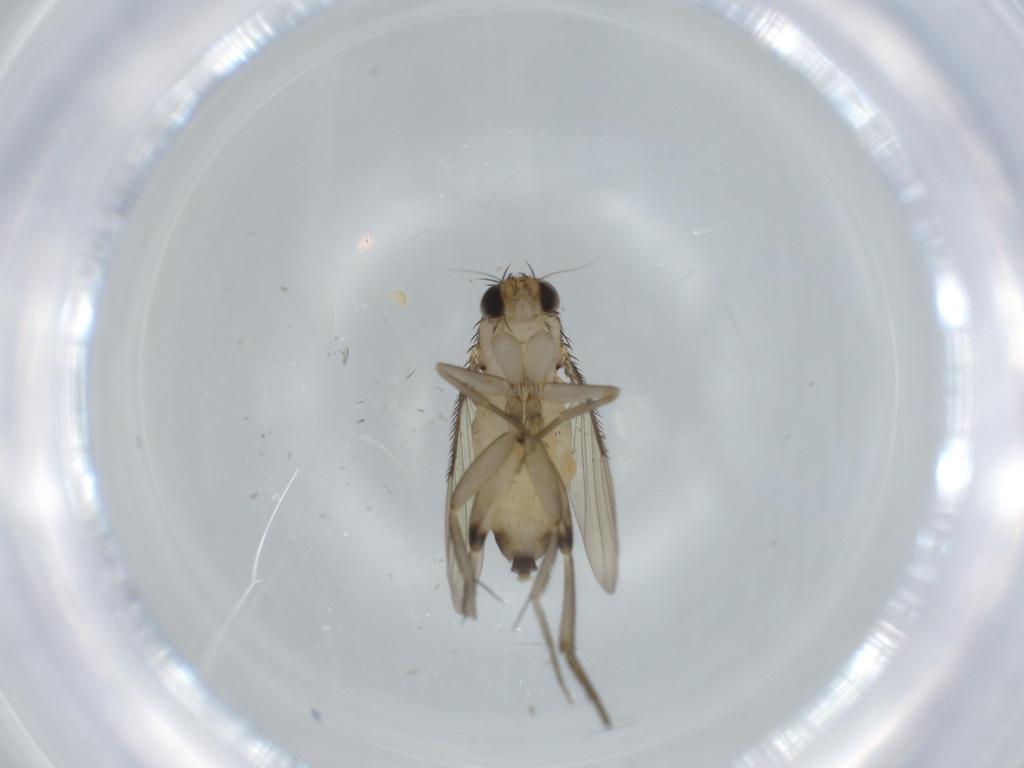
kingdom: Animalia
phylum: Arthropoda
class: Insecta
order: Diptera
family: Phoridae
